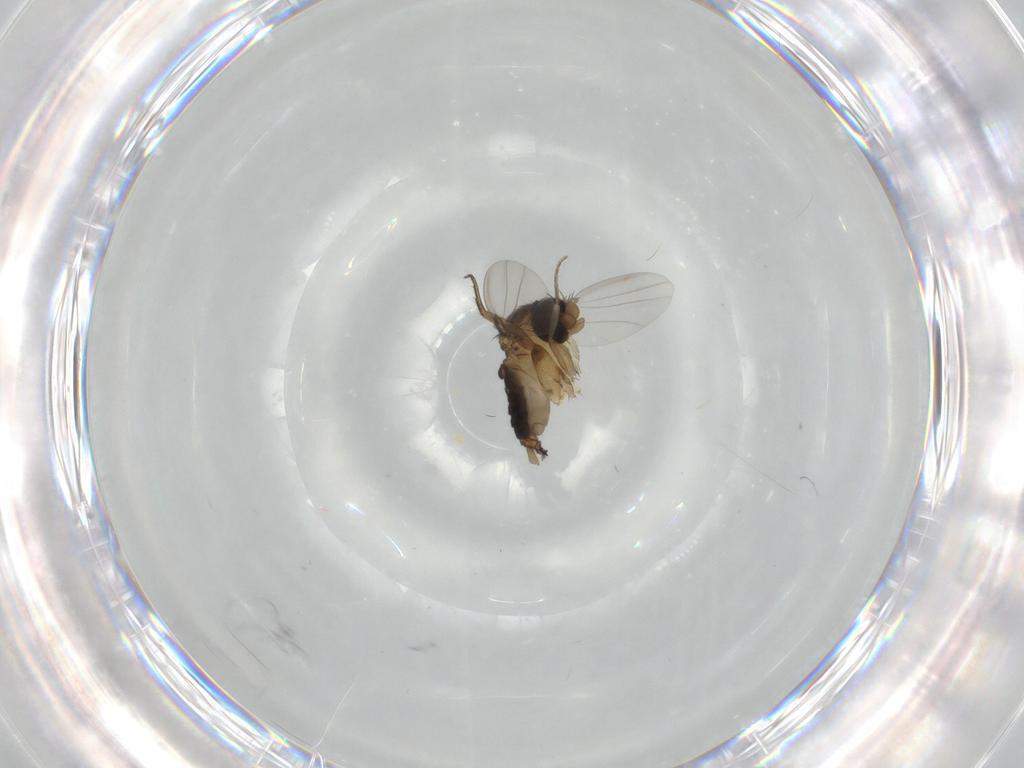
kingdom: Animalia
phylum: Arthropoda
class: Insecta
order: Diptera
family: Phoridae
